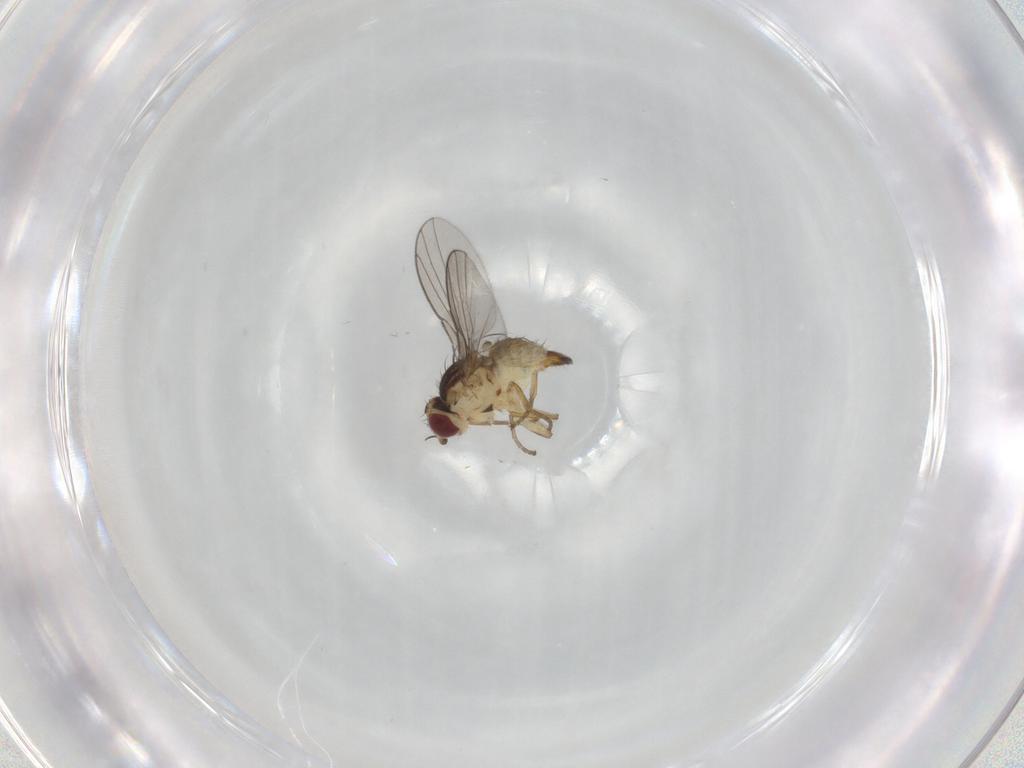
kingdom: Animalia
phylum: Arthropoda
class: Insecta
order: Diptera
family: Agromyzidae
